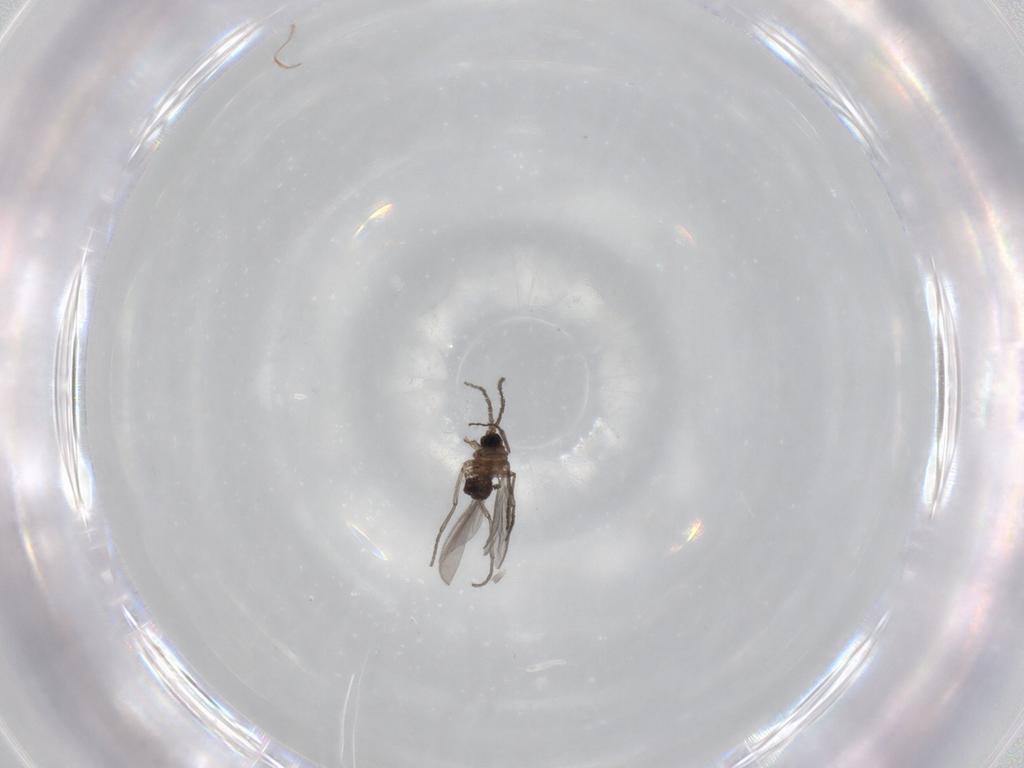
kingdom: Animalia
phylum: Arthropoda
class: Insecta
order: Diptera
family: Sciaridae
